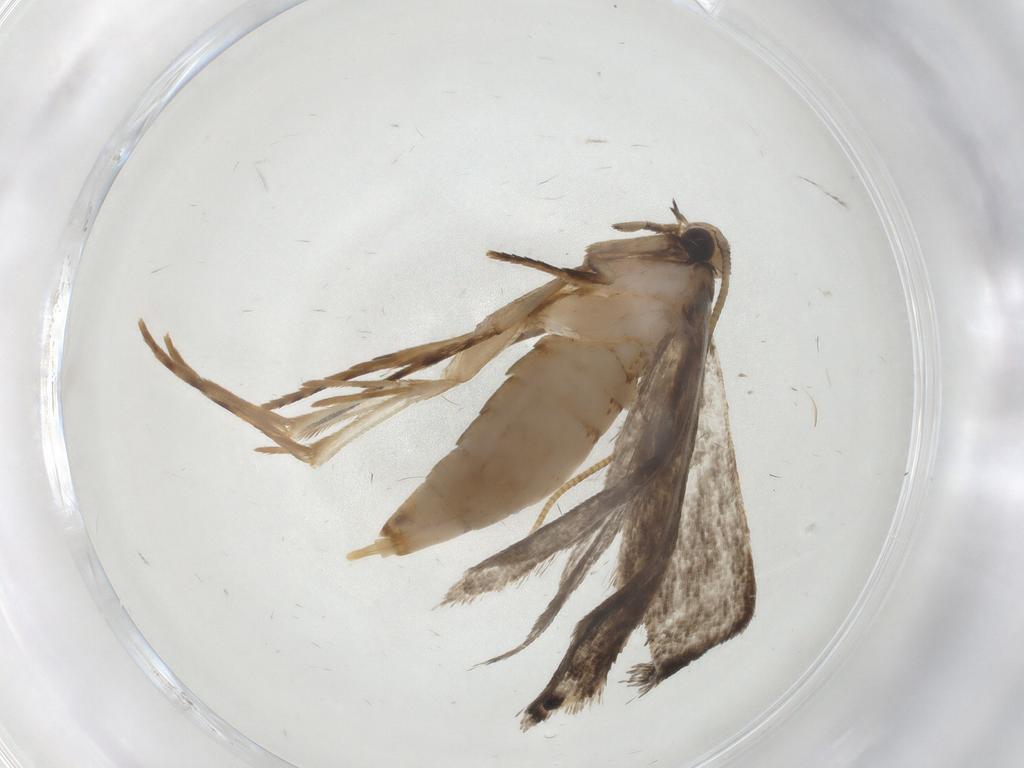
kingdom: Animalia
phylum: Arthropoda
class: Insecta
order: Lepidoptera
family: Tineidae
